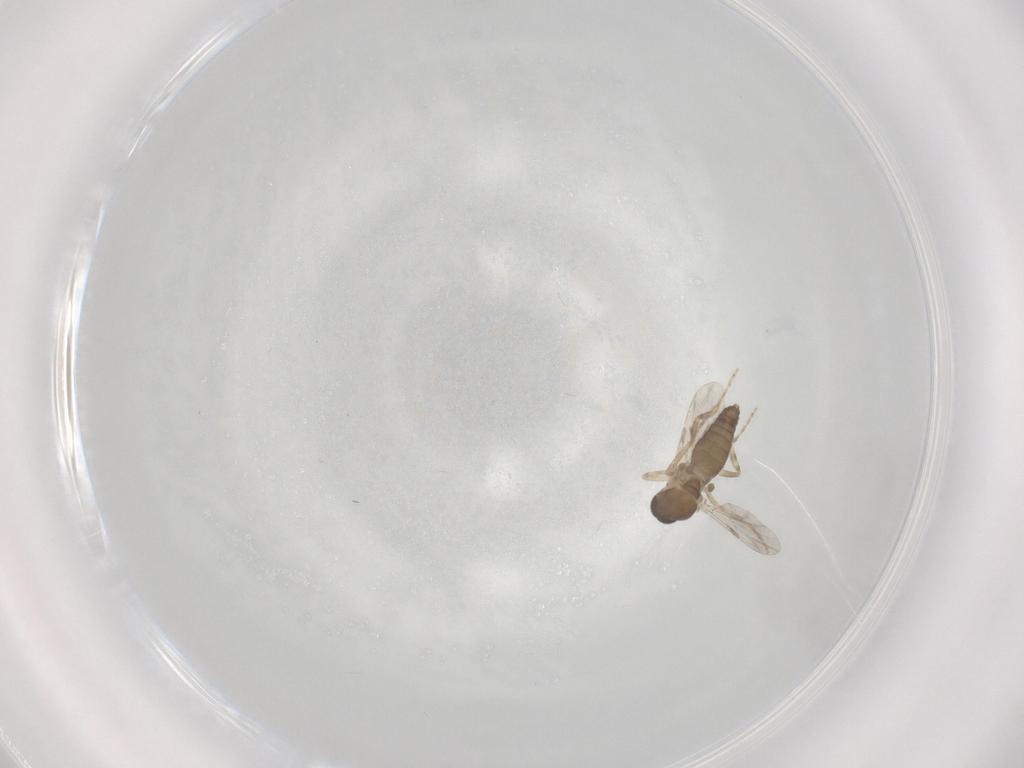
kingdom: Animalia
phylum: Arthropoda
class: Insecta
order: Diptera
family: Ceratopogonidae
